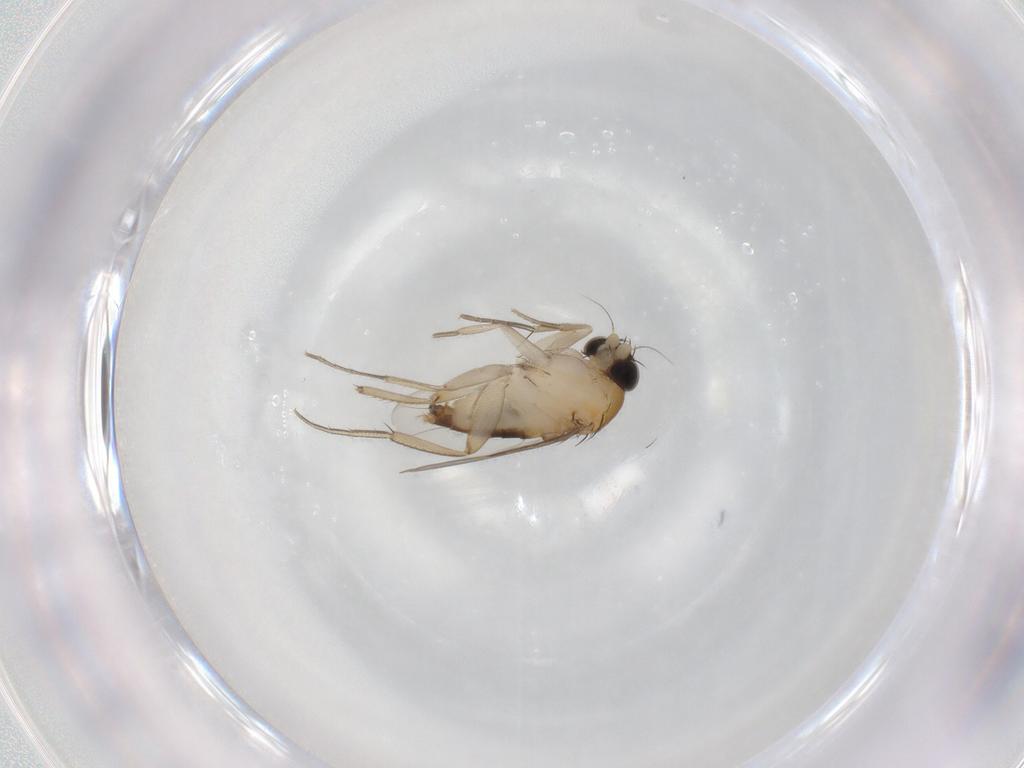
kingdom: Animalia
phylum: Arthropoda
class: Insecta
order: Diptera
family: Phoridae
